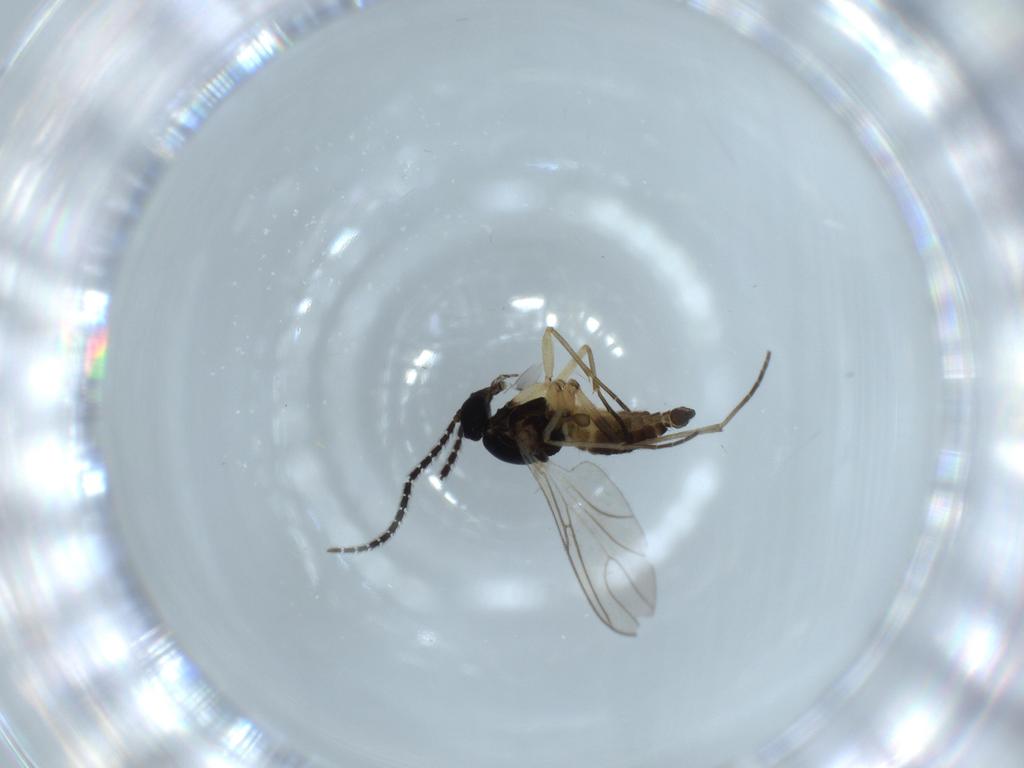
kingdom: Animalia
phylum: Arthropoda
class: Insecta
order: Diptera
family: Sciaridae
